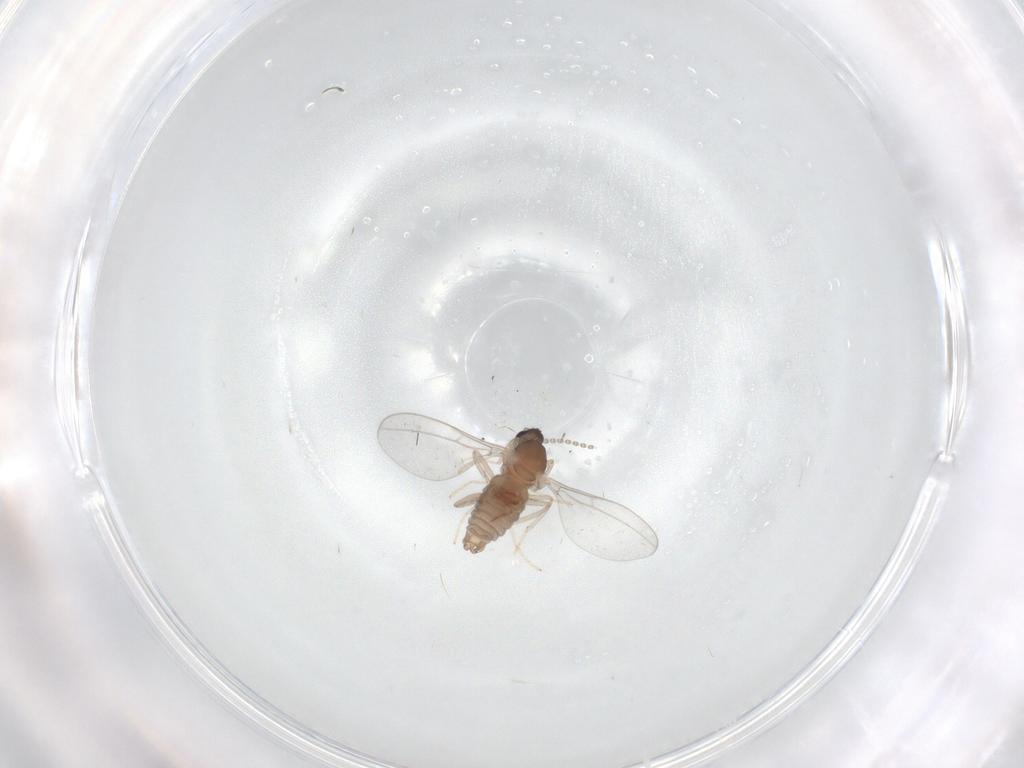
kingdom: Animalia
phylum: Arthropoda
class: Insecta
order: Diptera
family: Cecidomyiidae
